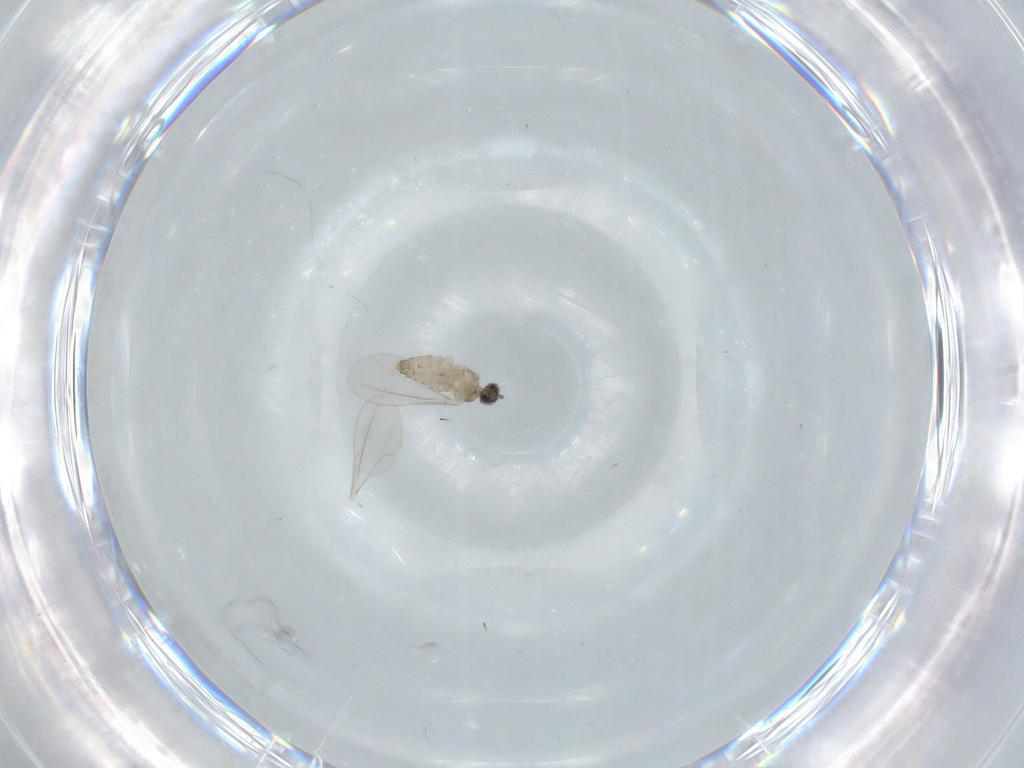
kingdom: Animalia
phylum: Arthropoda
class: Insecta
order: Diptera
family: Cecidomyiidae
